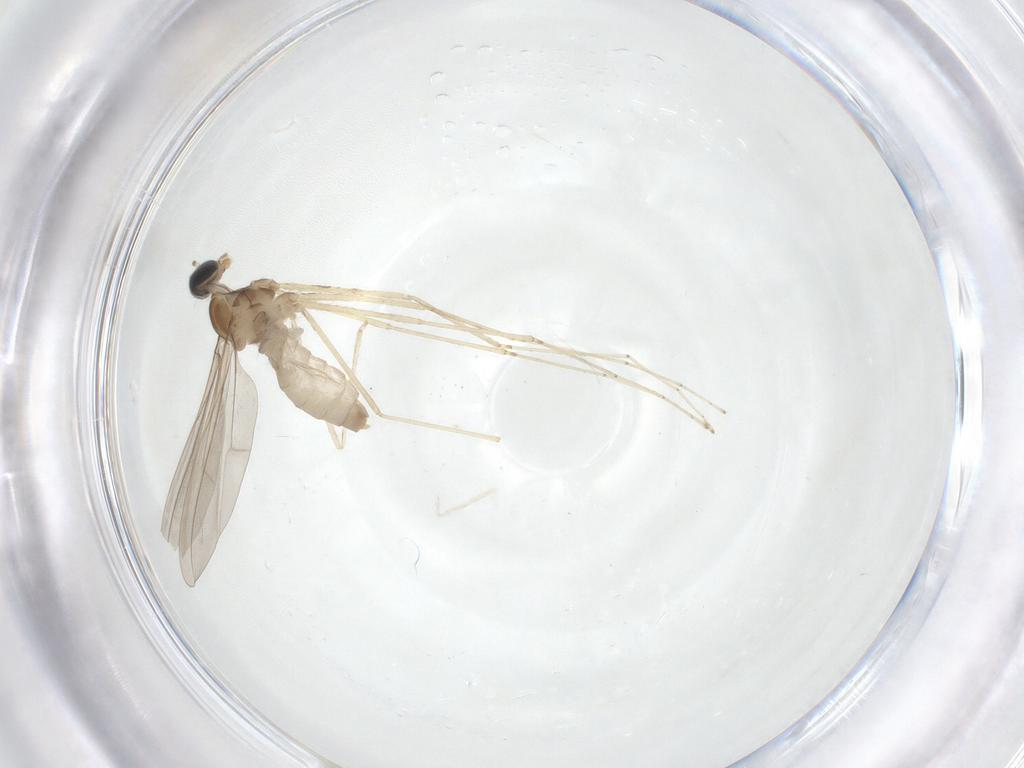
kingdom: Animalia
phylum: Arthropoda
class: Insecta
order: Diptera
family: Cecidomyiidae
